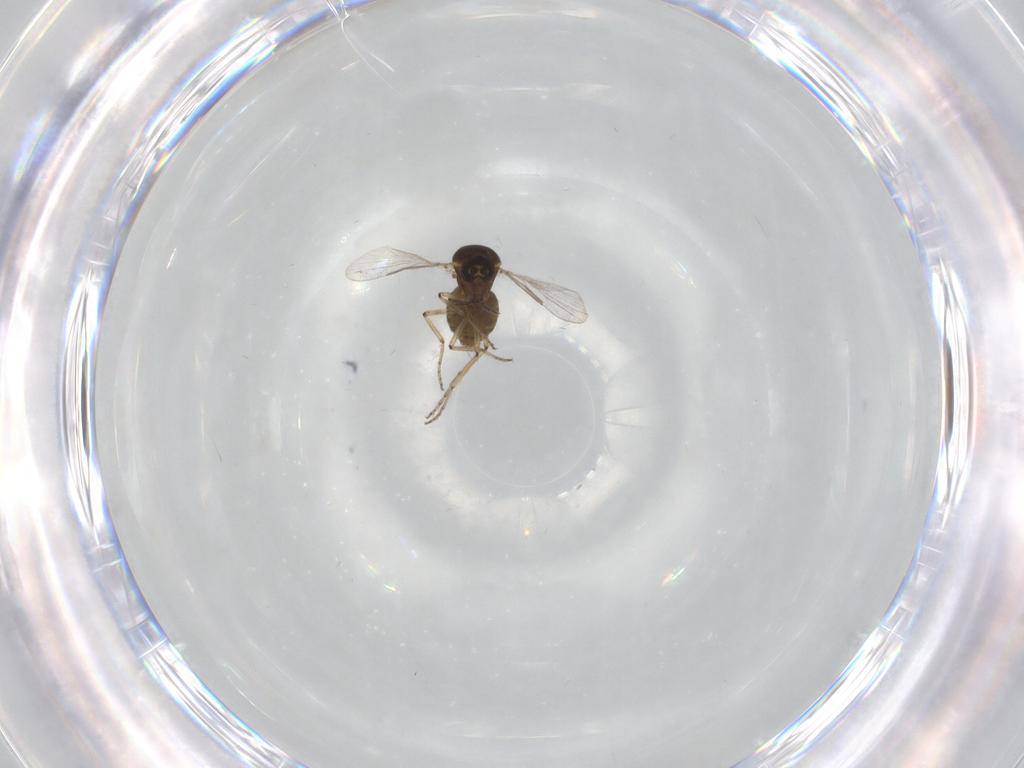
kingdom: Animalia
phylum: Arthropoda
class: Insecta
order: Diptera
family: Ceratopogonidae
